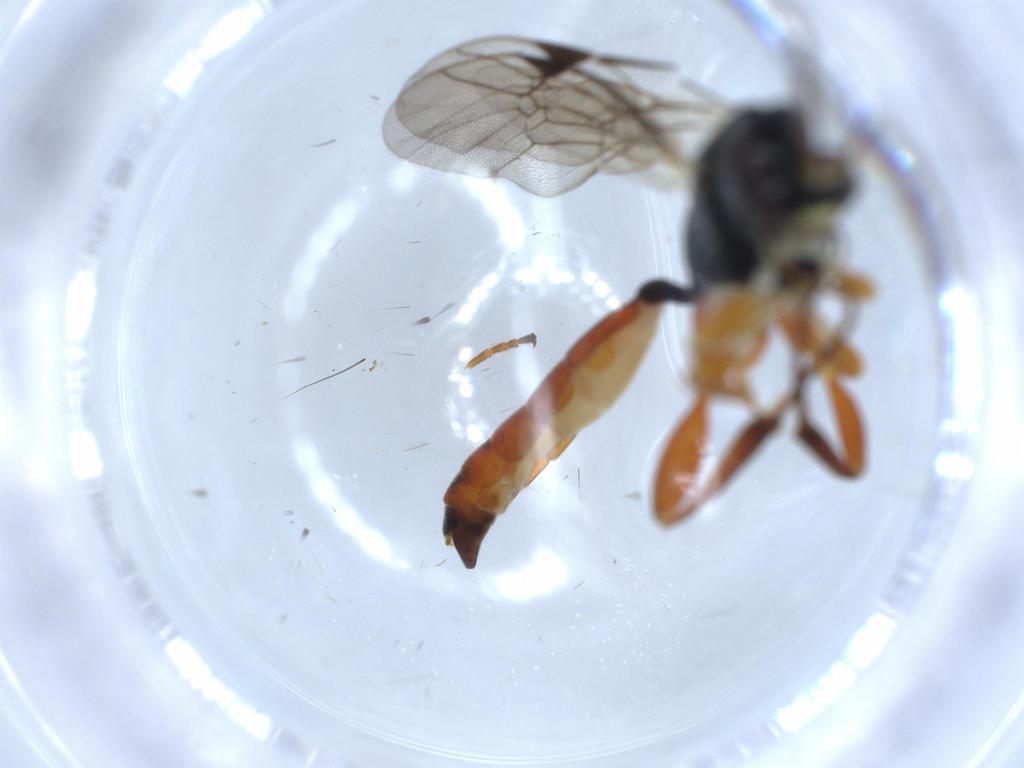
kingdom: Animalia
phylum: Arthropoda
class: Insecta
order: Hymenoptera
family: Ichneumonidae
